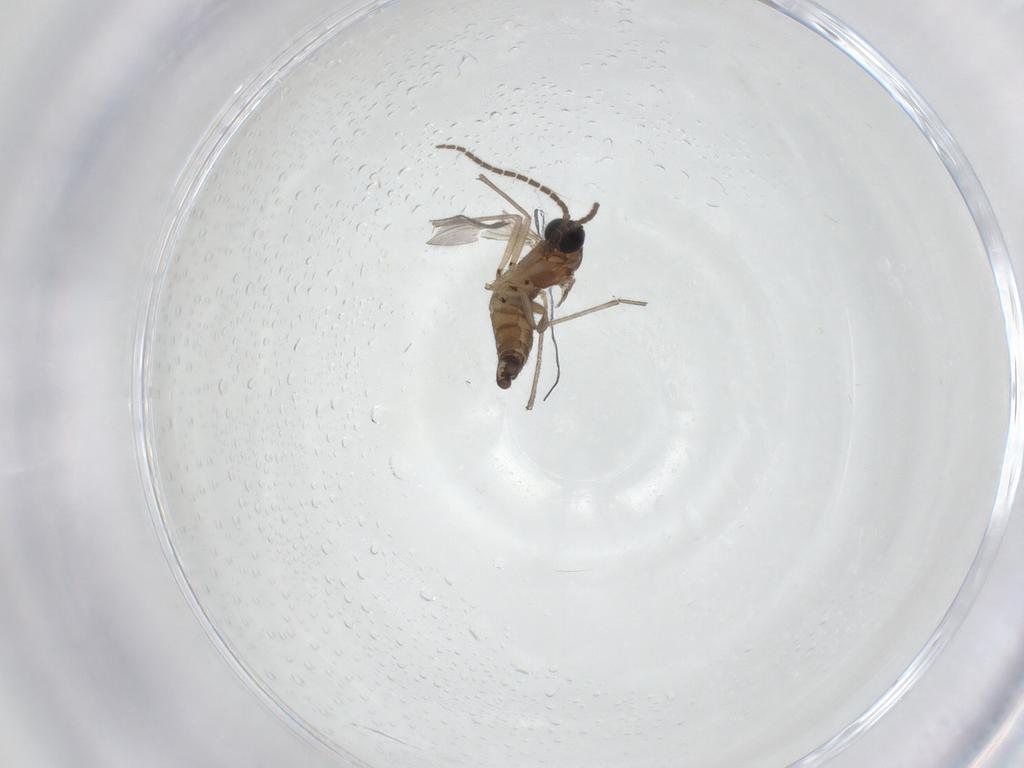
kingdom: Animalia
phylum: Arthropoda
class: Insecta
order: Diptera
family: Sciaridae
